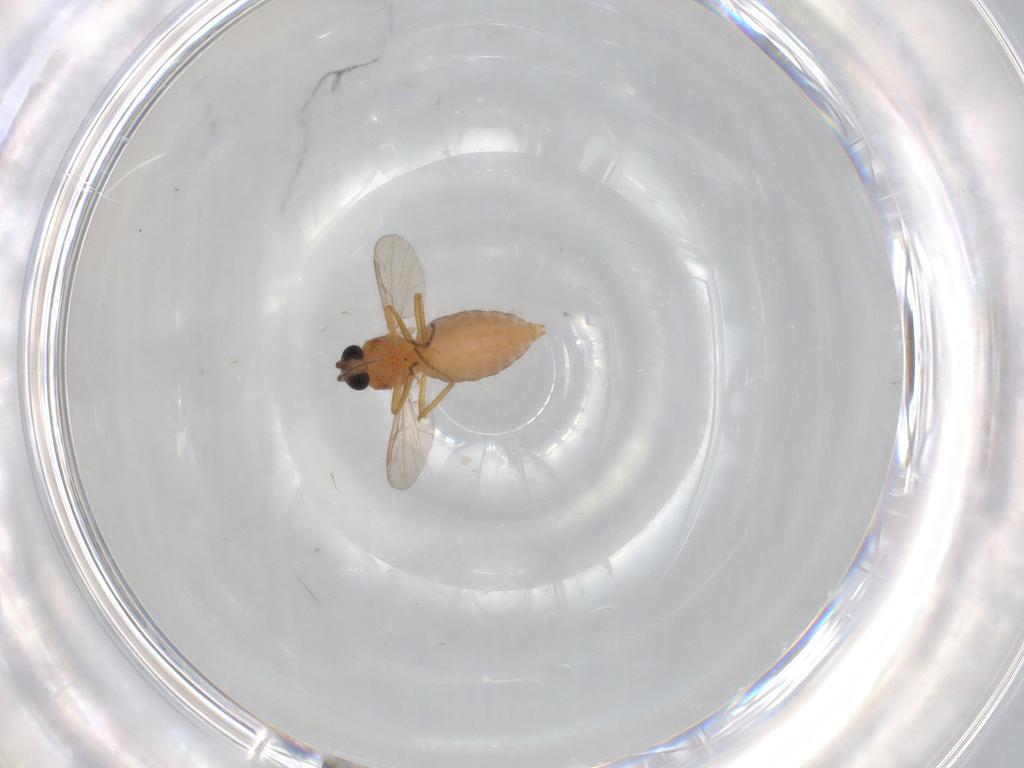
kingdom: Animalia
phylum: Arthropoda
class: Insecta
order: Diptera
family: Ceratopogonidae
